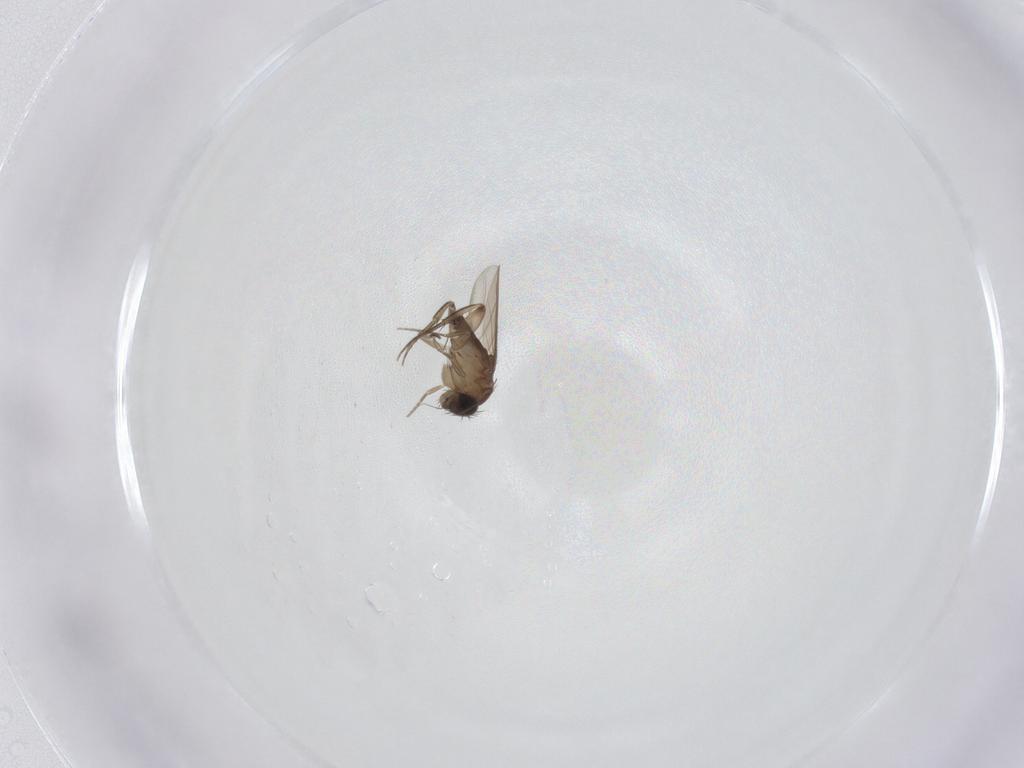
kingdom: Animalia
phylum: Arthropoda
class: Insecta
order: Diptera
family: Phoridae
